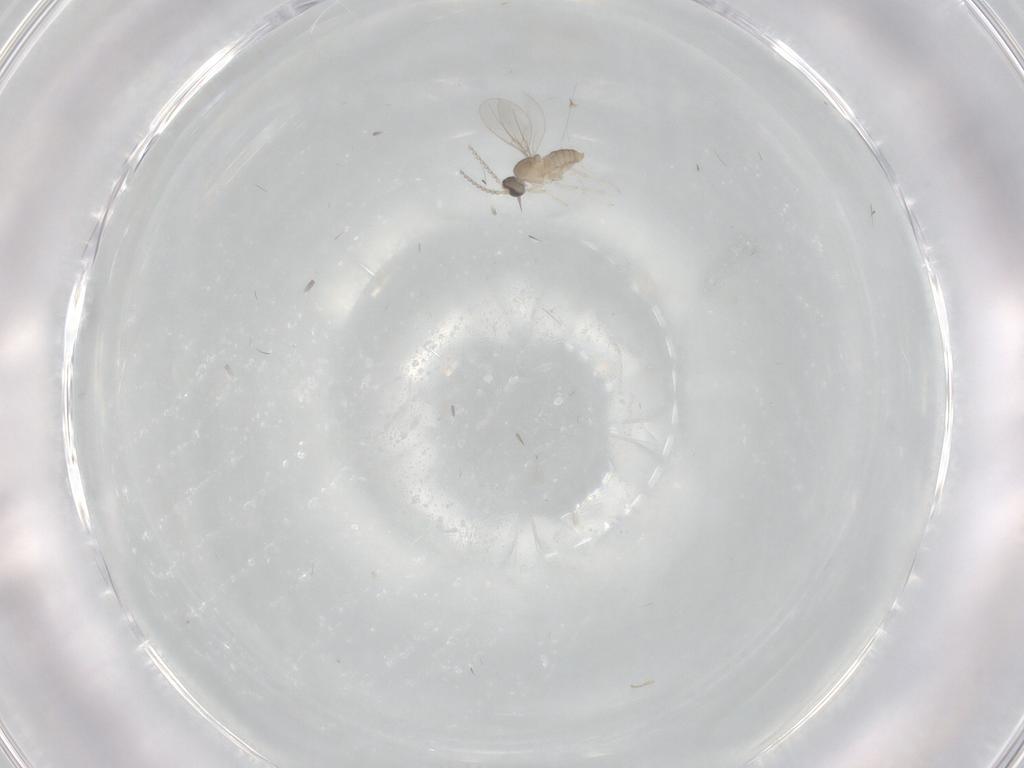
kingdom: Animalia
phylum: Arthropoda
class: Insecta
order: Diptera
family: Cecidomyiidae
